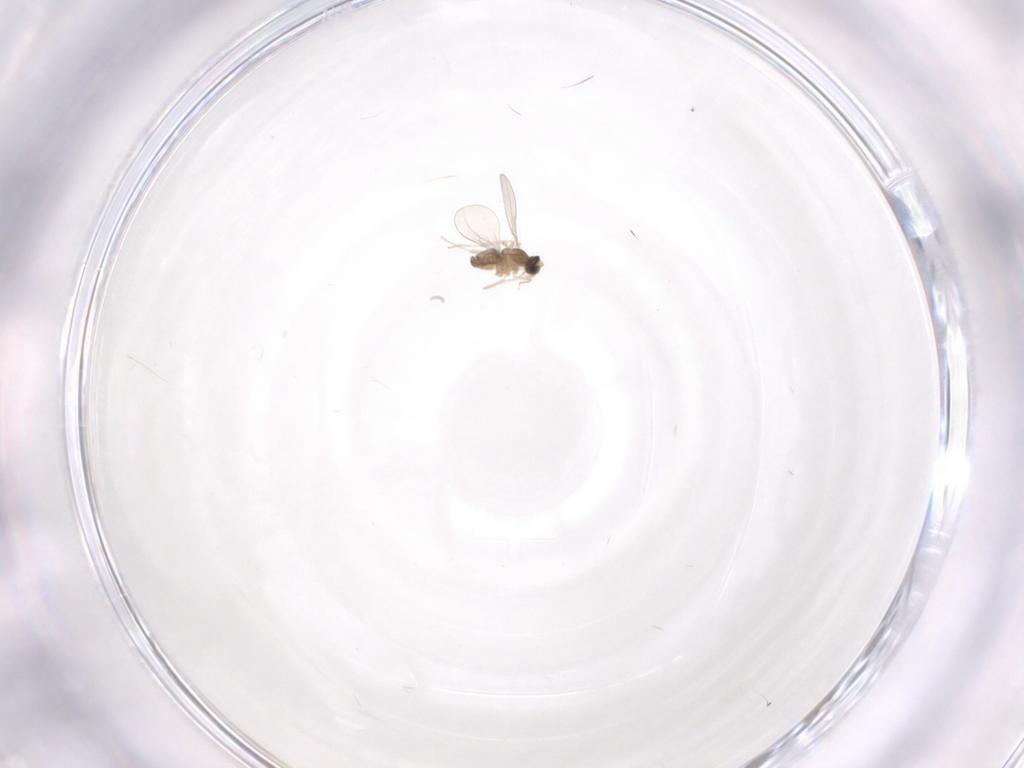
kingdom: Animalia
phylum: Arthropoda
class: Insecta
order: Diptera
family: Cecidomyiidae
